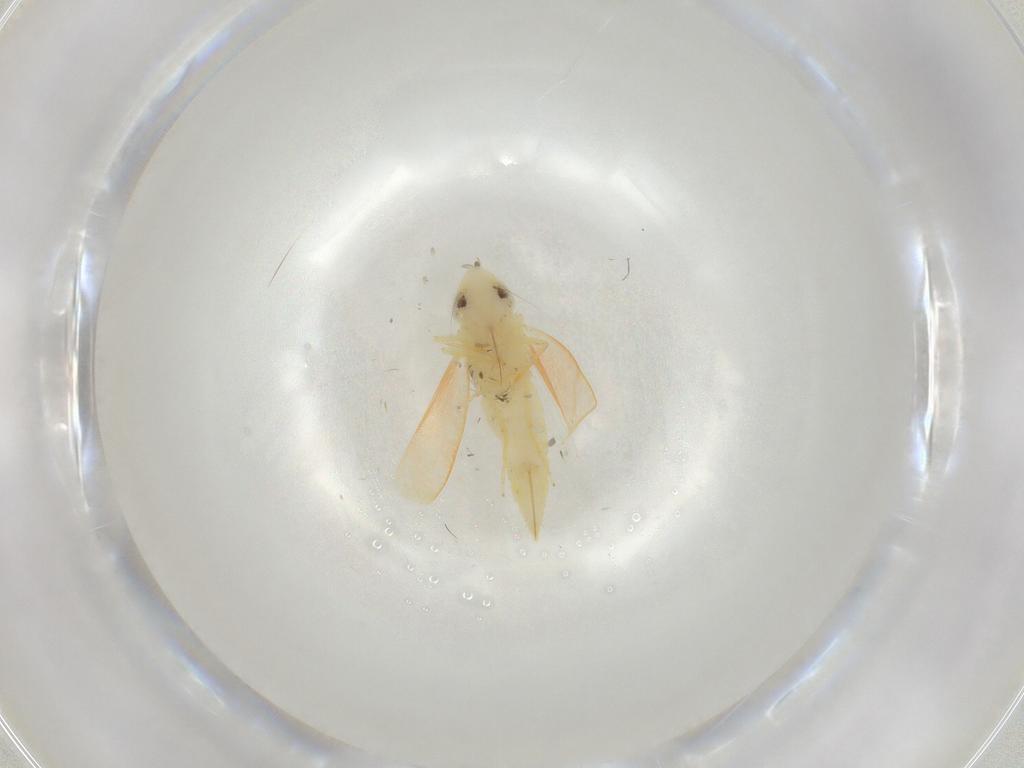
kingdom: Animalia
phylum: Arthropoda
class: Insecta
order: Hemiptera
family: Cicadellidae
